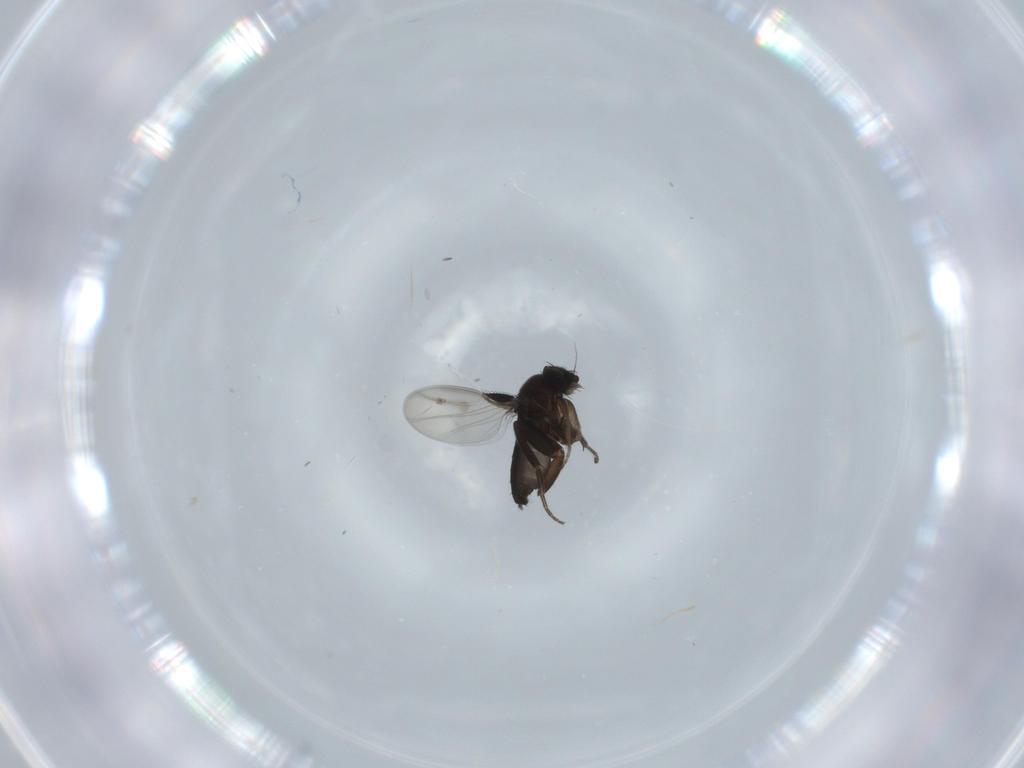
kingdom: Animalia
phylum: Arthropoda
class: Insecta
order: Diptera
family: Phoridae
